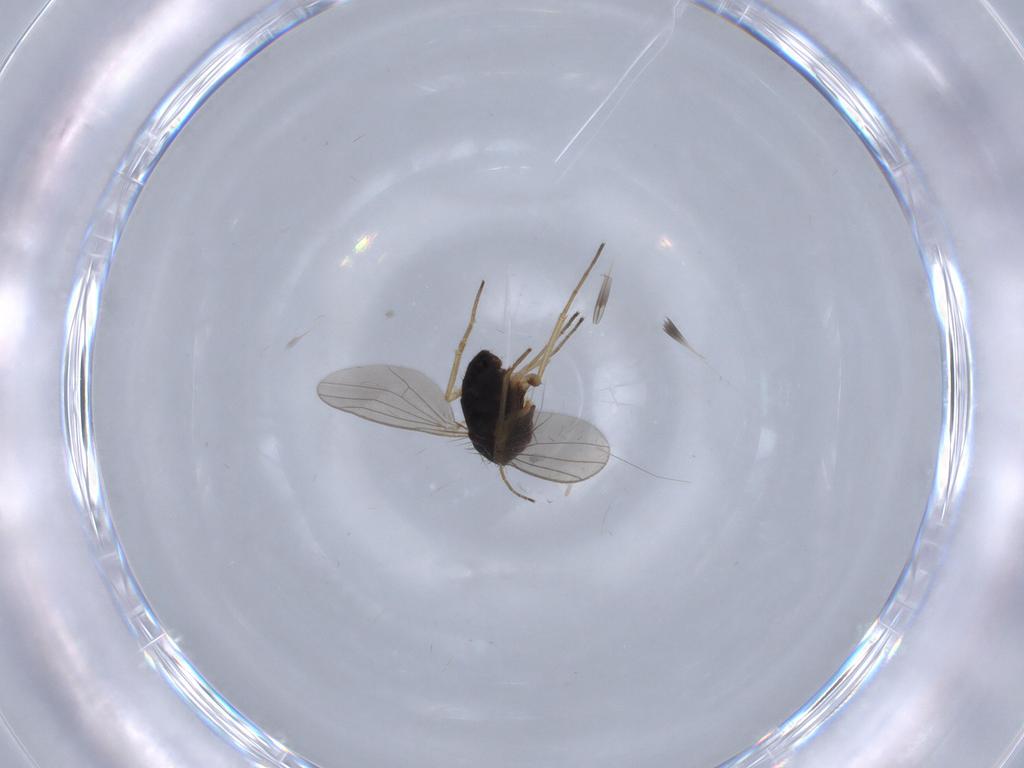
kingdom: Animalia
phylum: Arthropoda
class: Insecta
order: Diptera
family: Dolichopodidae
